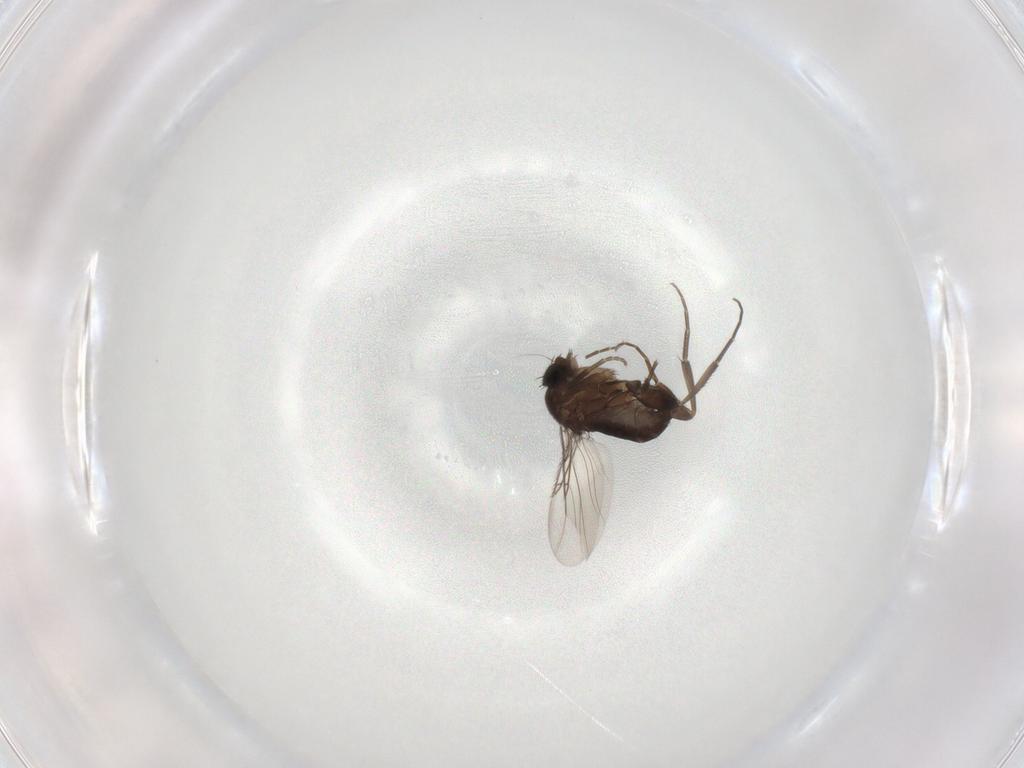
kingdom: Animalia
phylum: Arthropoda
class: Insecta
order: Diptera
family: Phoridae
